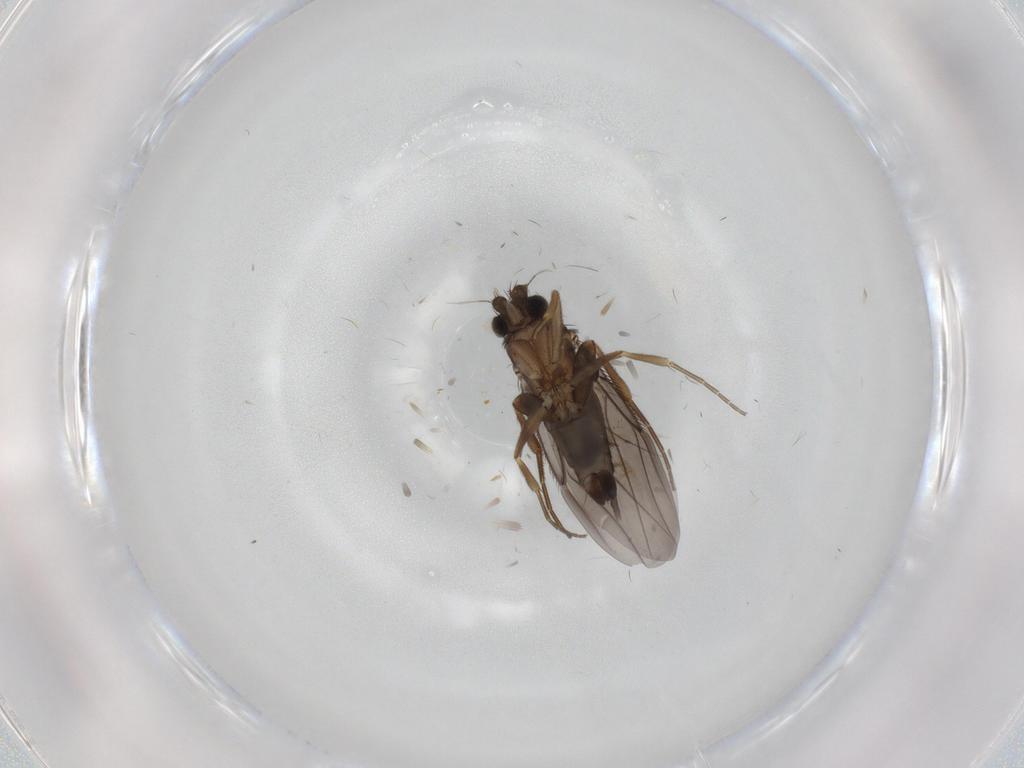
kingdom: Animalia
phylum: Arthropoda
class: Insecta
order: Diptera
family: Phoridae
